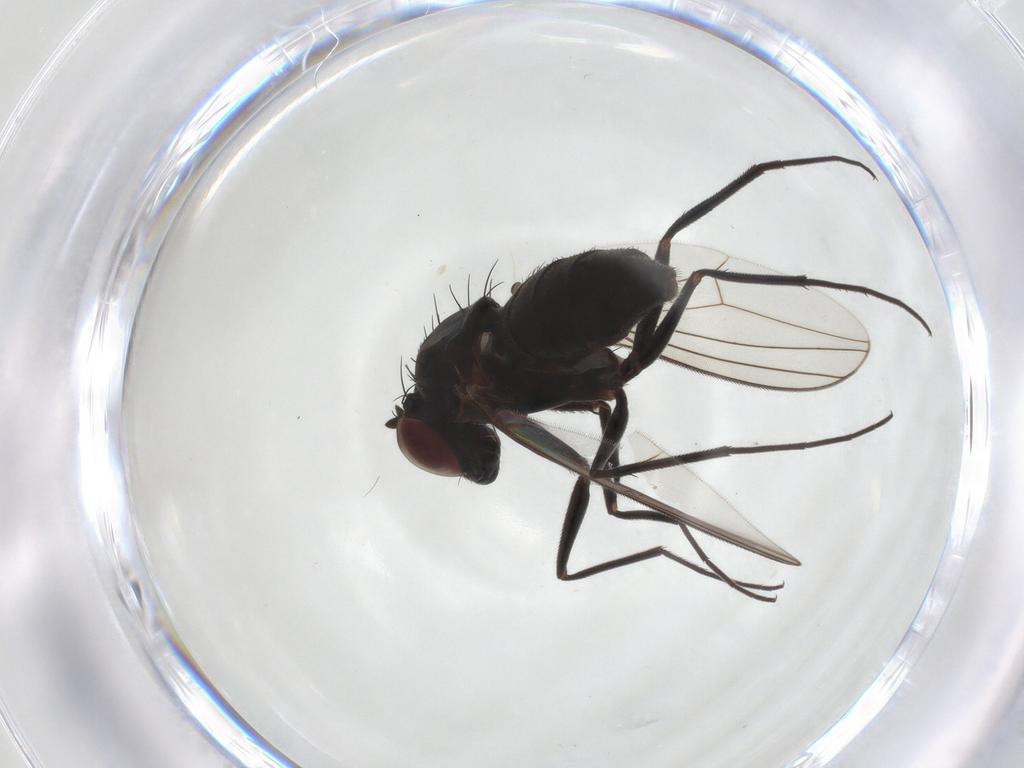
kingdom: Animalia
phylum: Arthropoda
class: Insecta
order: Diptera
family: Dolichopodidae
